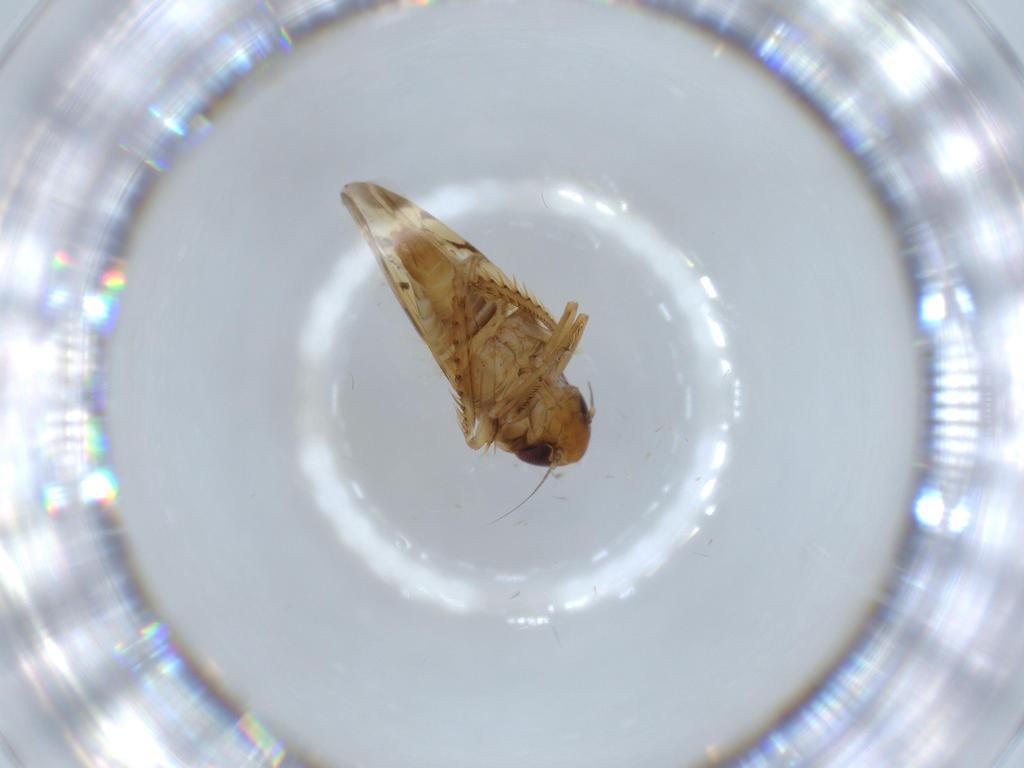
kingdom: Animalia
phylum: Arthropoda
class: Insecta
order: Hemiptera
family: Cicadellidae
